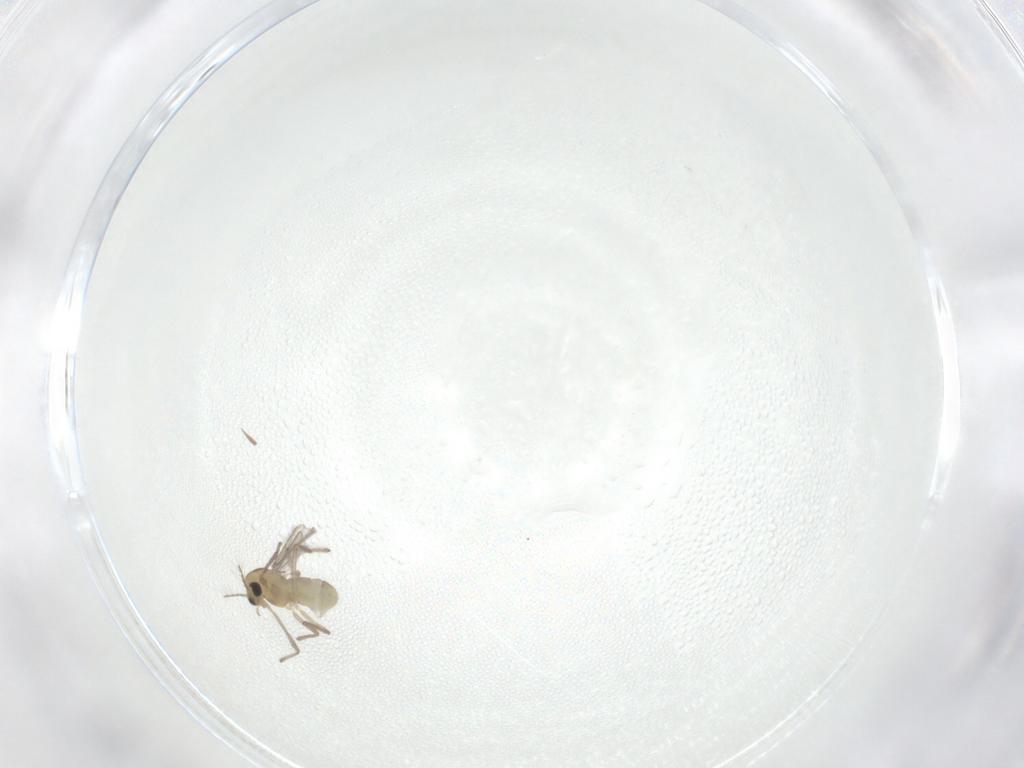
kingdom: Animalia
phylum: Arthropoda
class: Insecta
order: Diptera
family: Chironomidae
